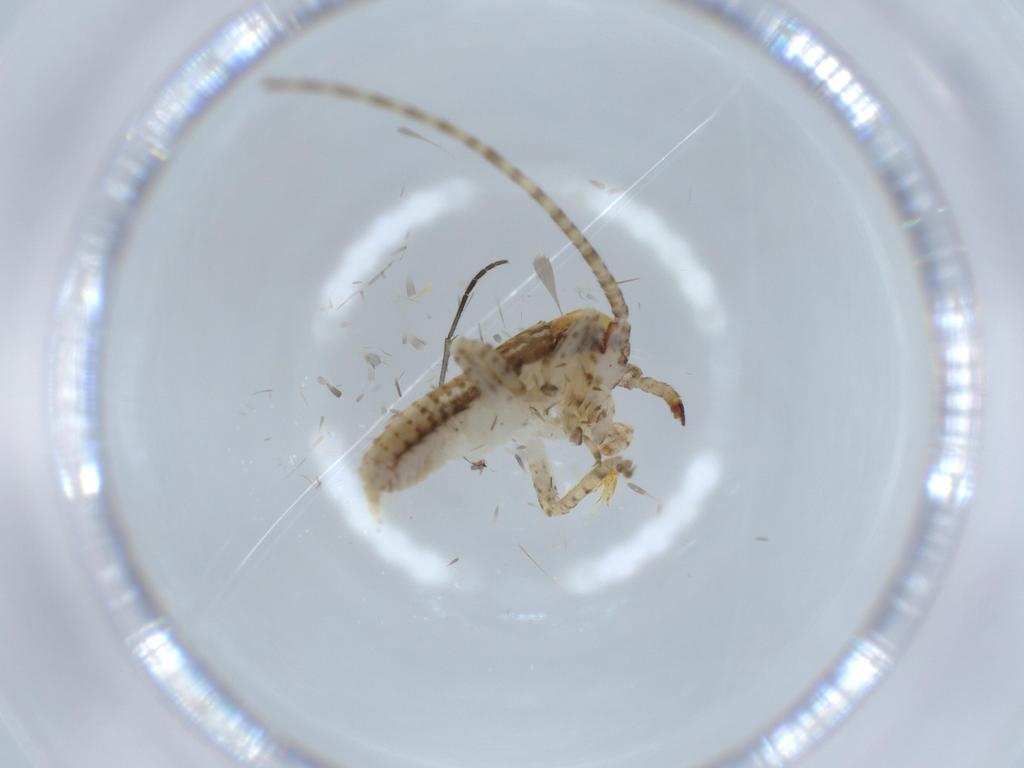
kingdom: Animalia
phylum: Arthropoda
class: Insecta
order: Orthoptera
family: Gryllidae
